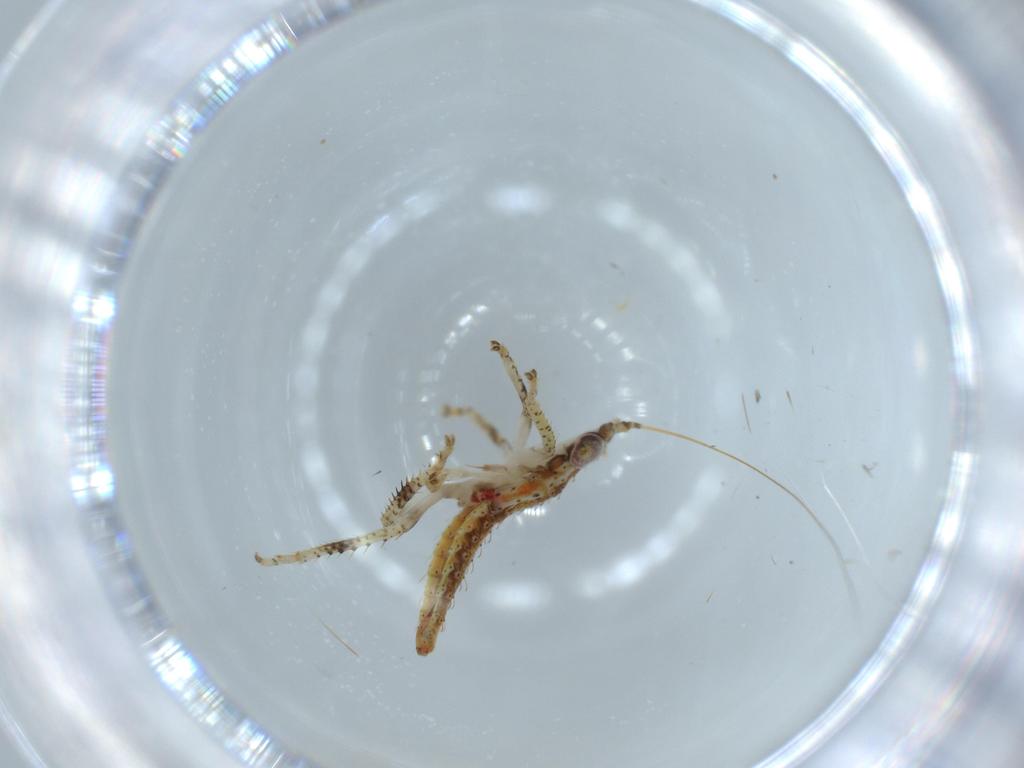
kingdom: Animalia
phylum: Arthropoda
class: Insecta
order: Hemiptera
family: Cicadellidae
